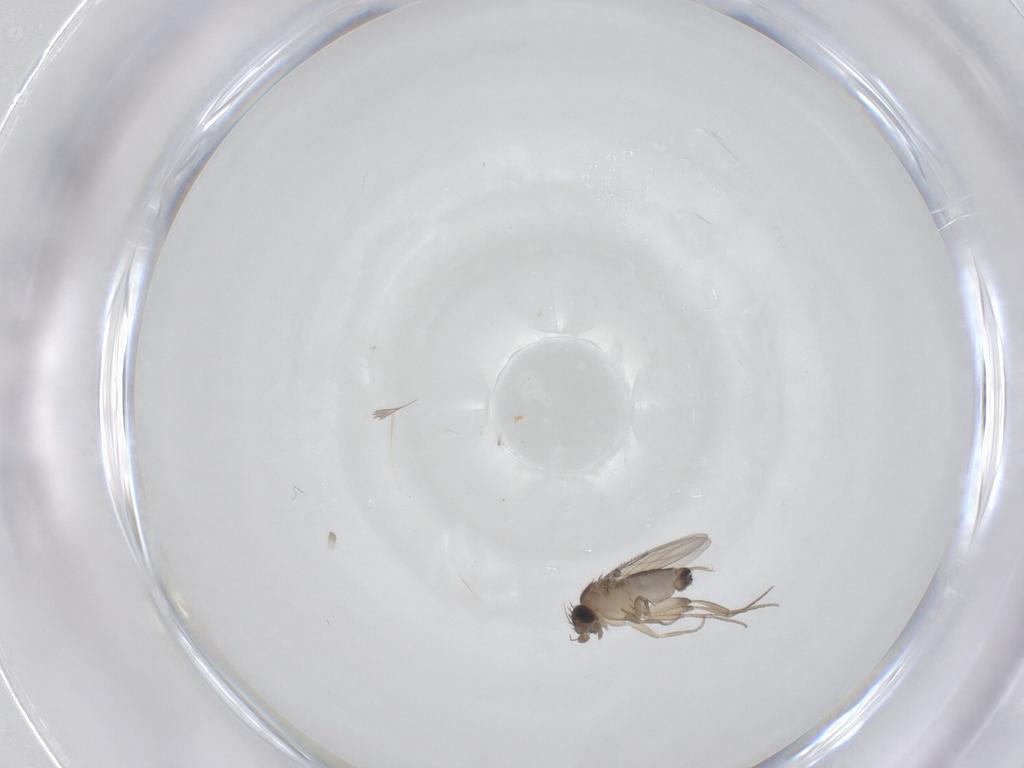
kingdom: Animalia
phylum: Arthropoda
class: Insecta
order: Diptera
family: Phoridae
